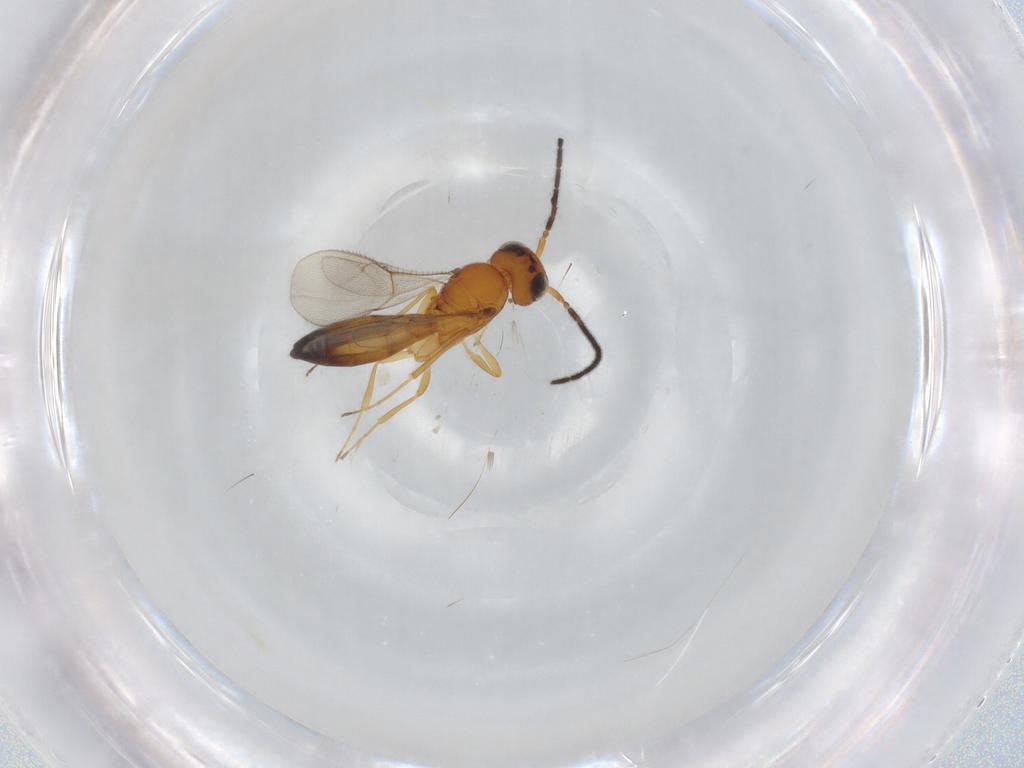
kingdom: Animalia
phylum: Arthropoda
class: Insecta
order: Hymenoptera
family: Scelionidae
